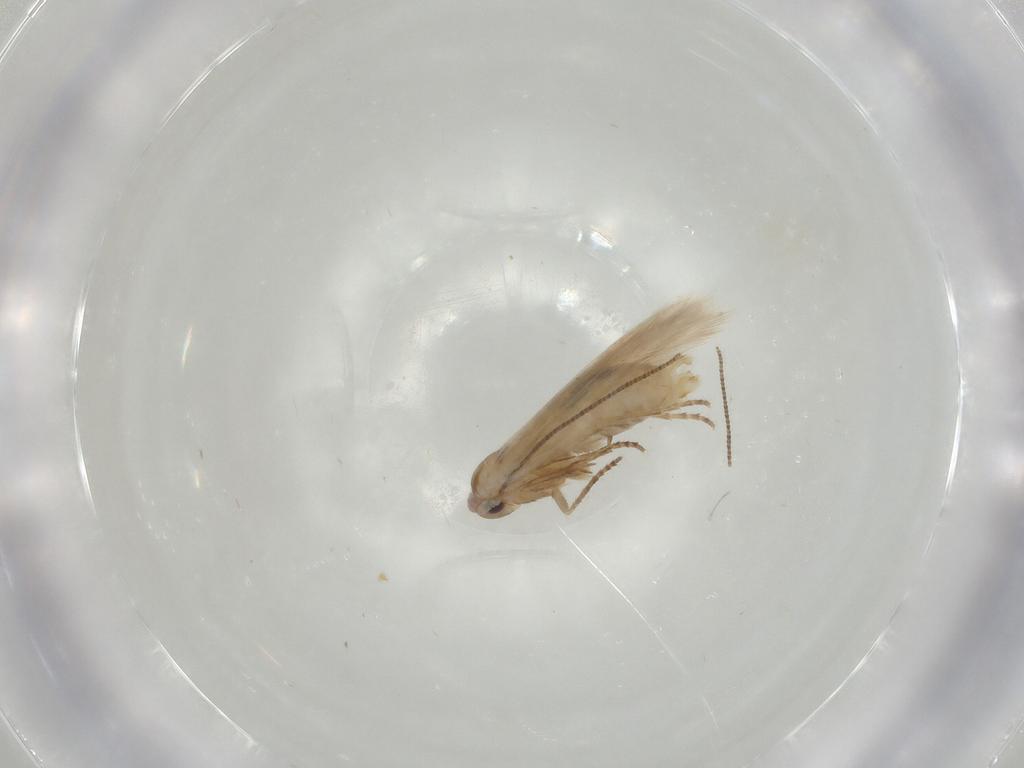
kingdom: Animalia
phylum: Arthropoda
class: Insecta
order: Lepidoptera
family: Bucculatricidae
